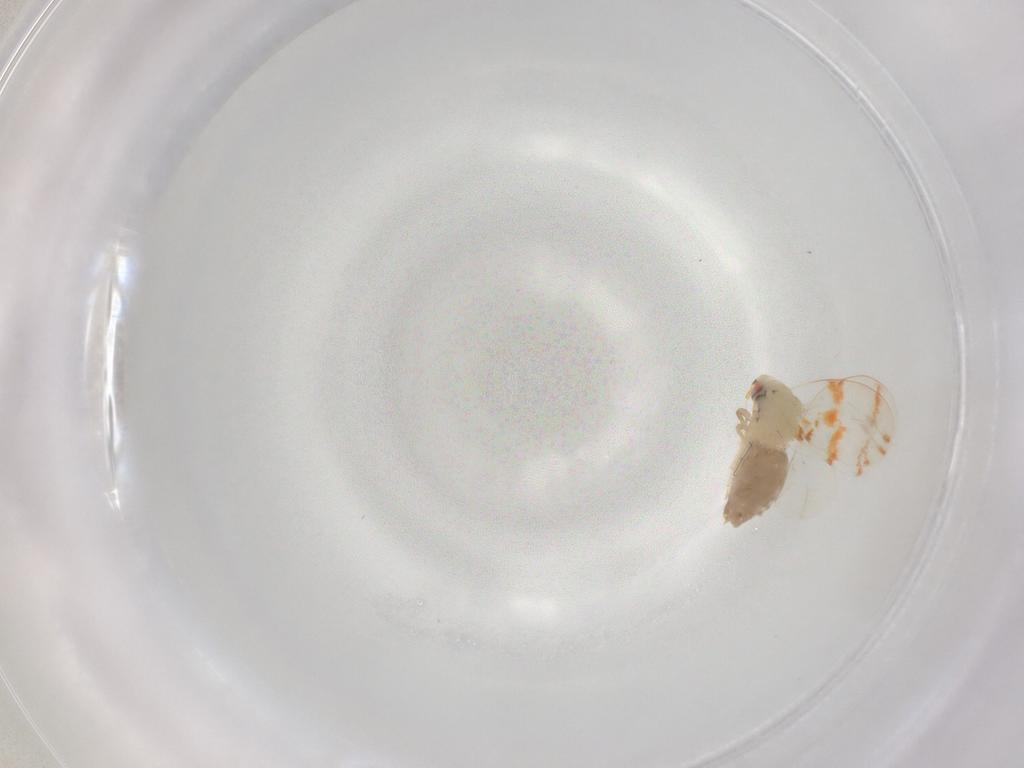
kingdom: Animalia
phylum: Arthropoda
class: Insecta
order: Hemiptera
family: Aleyrodidae
